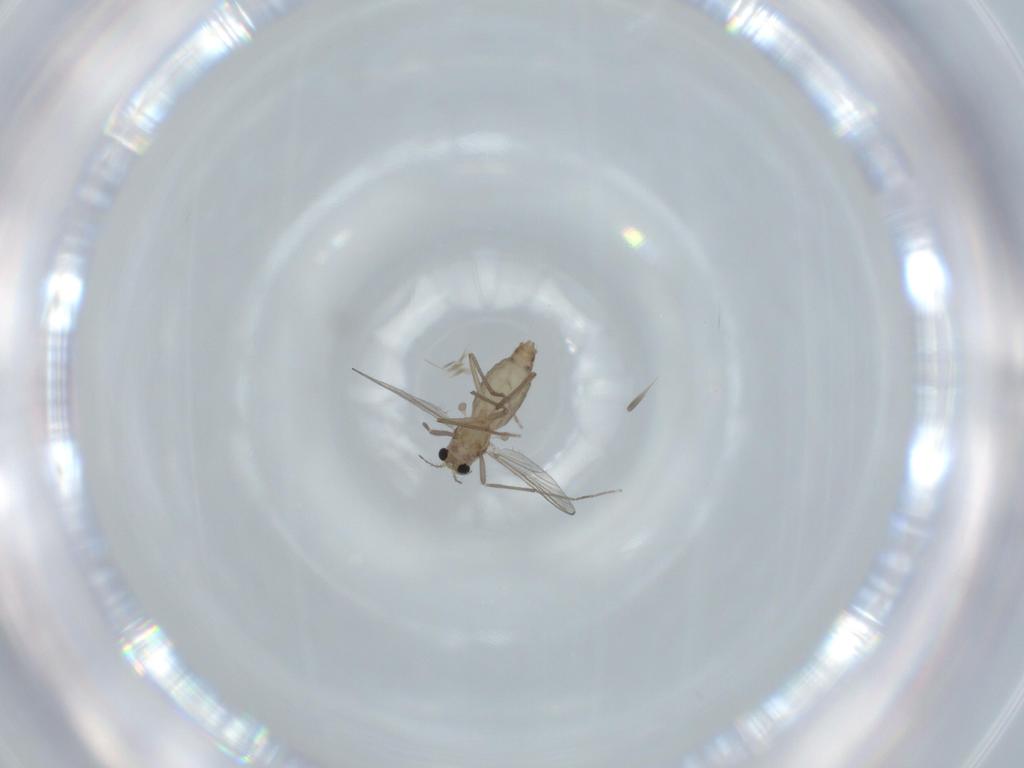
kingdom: Animalia
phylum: Arthropoda
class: Insecta
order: Diptera
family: Chironomidae
